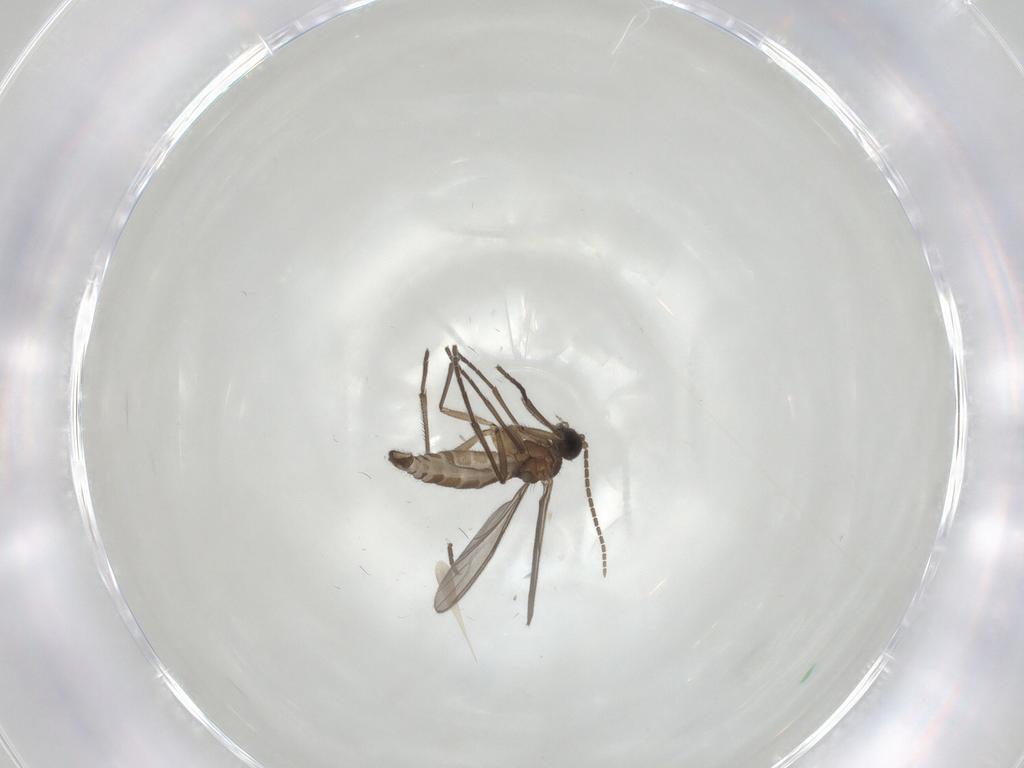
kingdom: Animalia
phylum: Arthropoda
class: Insecta
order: Diptera
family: Sciaridae
